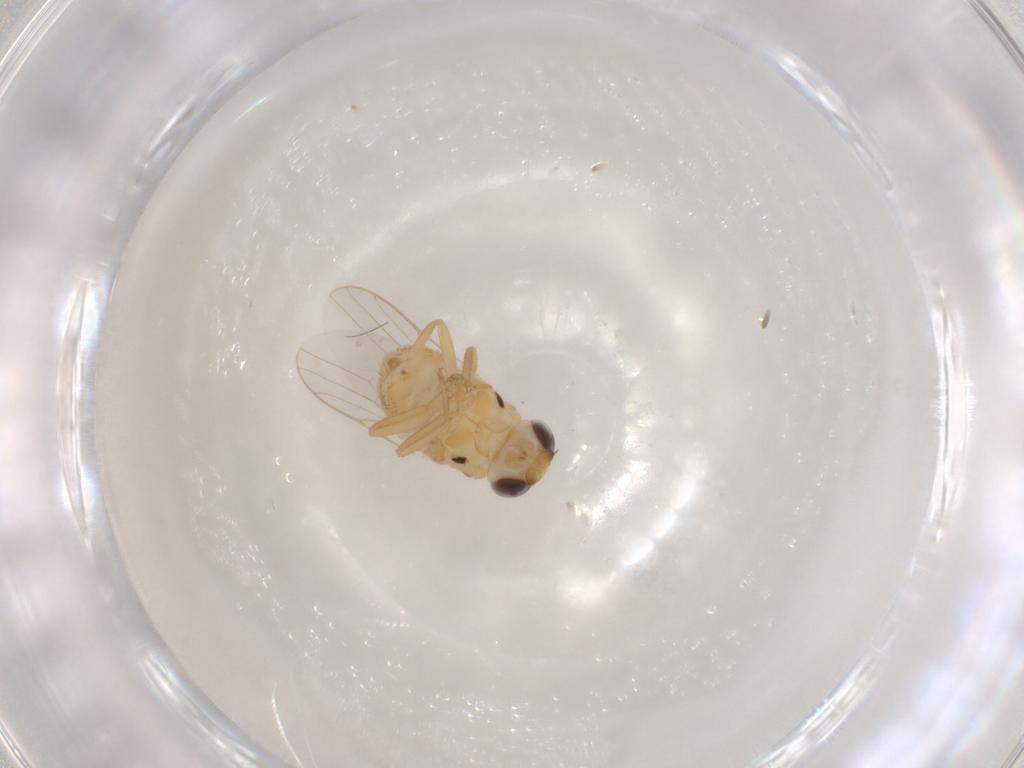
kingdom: Animalia
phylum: Arthropoda
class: Insecta
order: Diptera
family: Chloropidae
